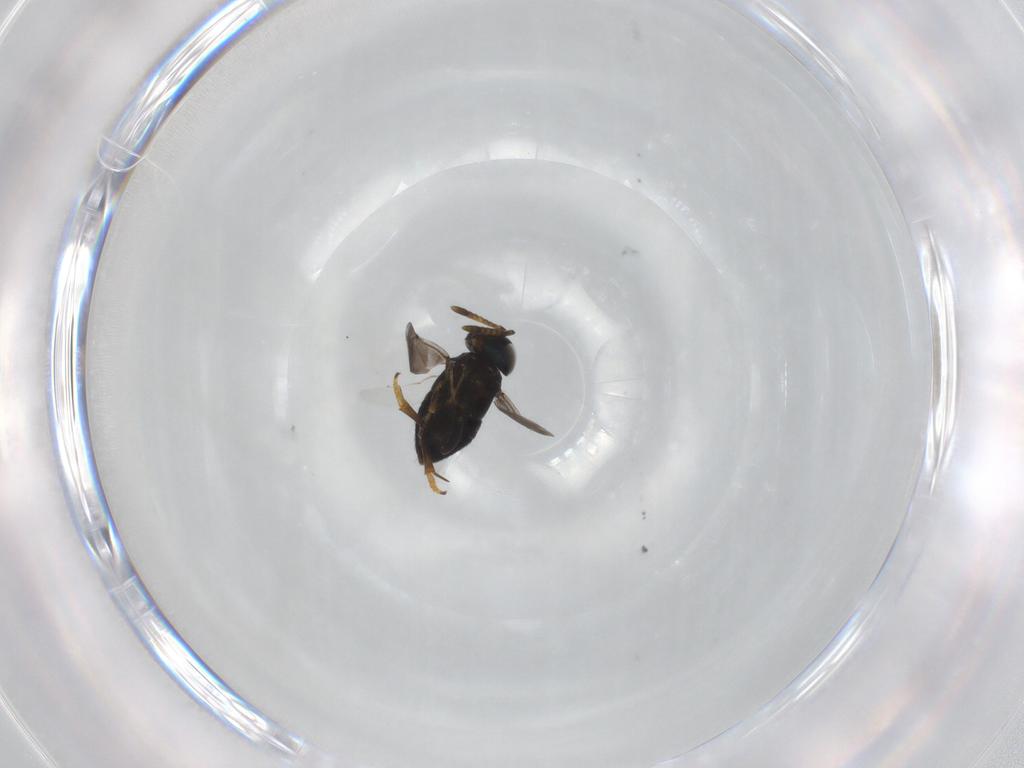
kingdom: Animalia
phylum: Arthropoda
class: Insecta
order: Hymenoptera
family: Encyrtidae
